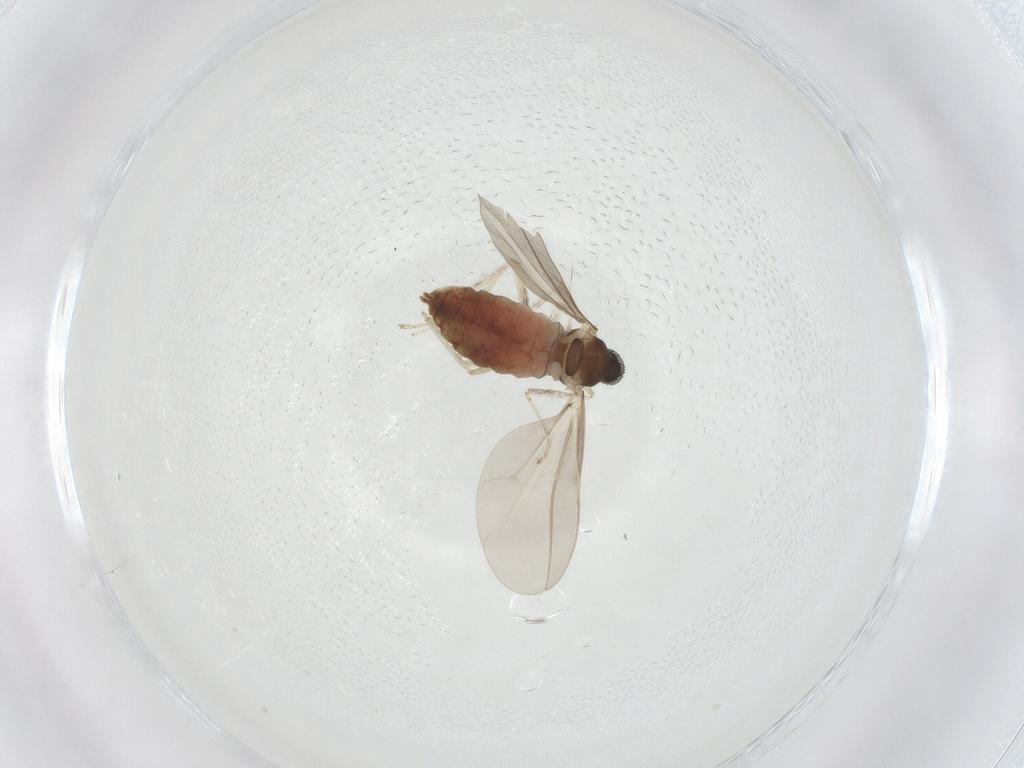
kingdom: Animalia
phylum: Arthropoda
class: Insecta
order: Diptera
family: Cecidomyiidae
